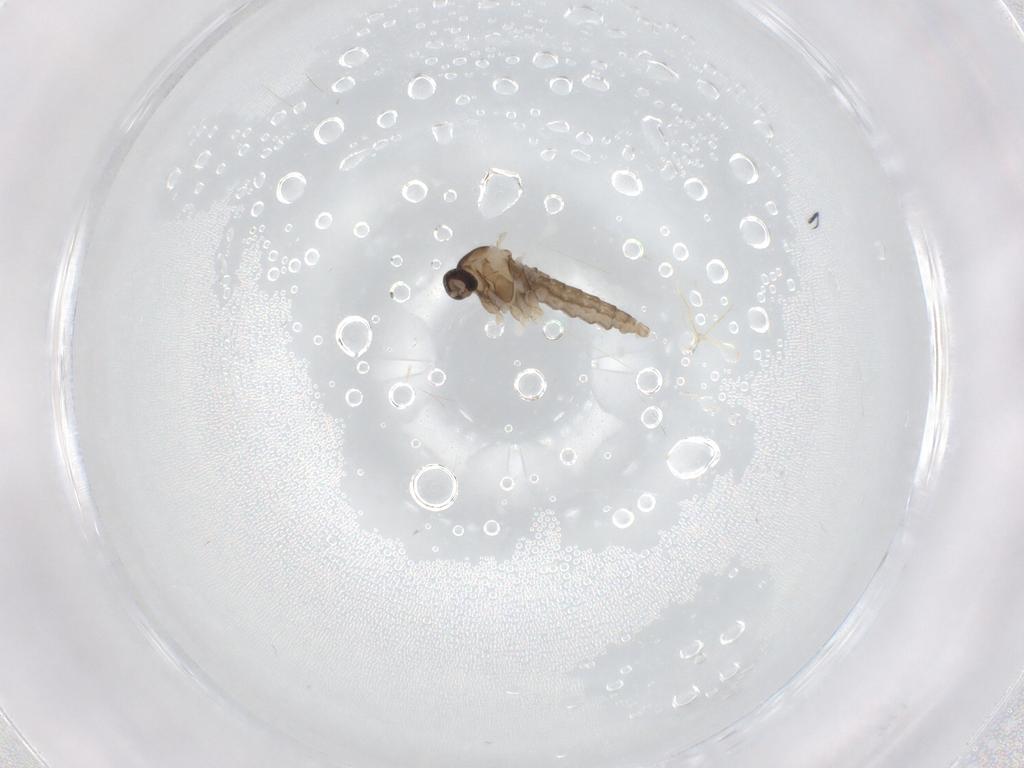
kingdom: Animalia
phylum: Arthropoda
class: Insecta
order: Diptera
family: Cecidomyiidae
